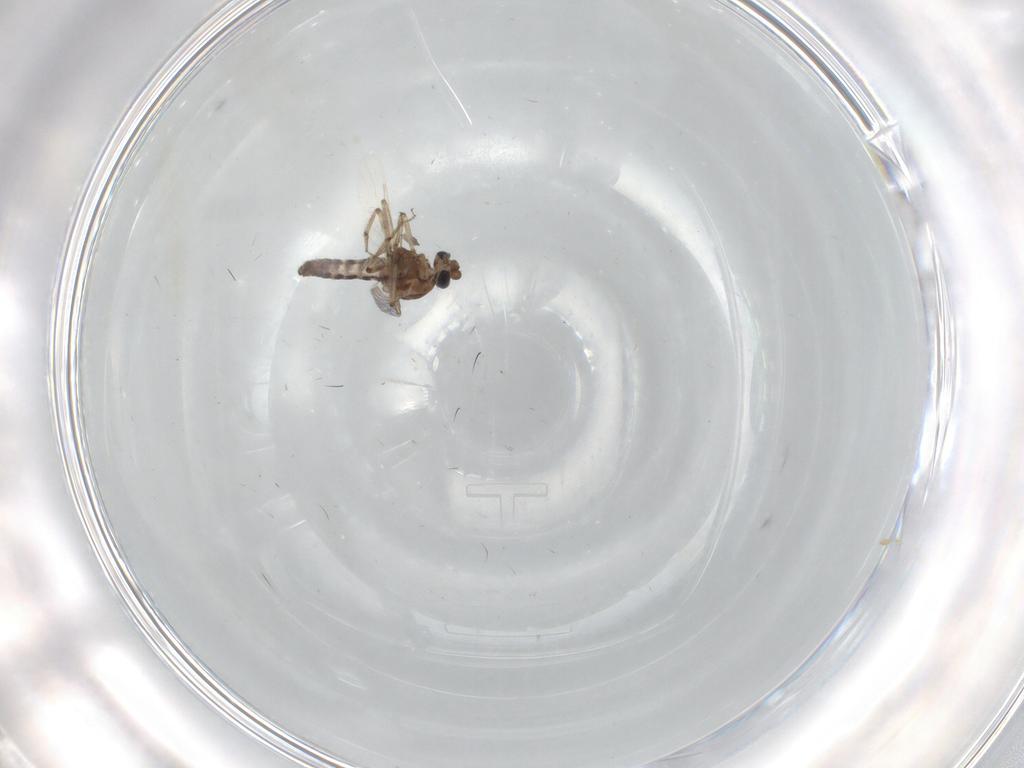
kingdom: Animalia
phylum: Arthropoda
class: Insecta
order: Diptera
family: Ceratopogonidae
